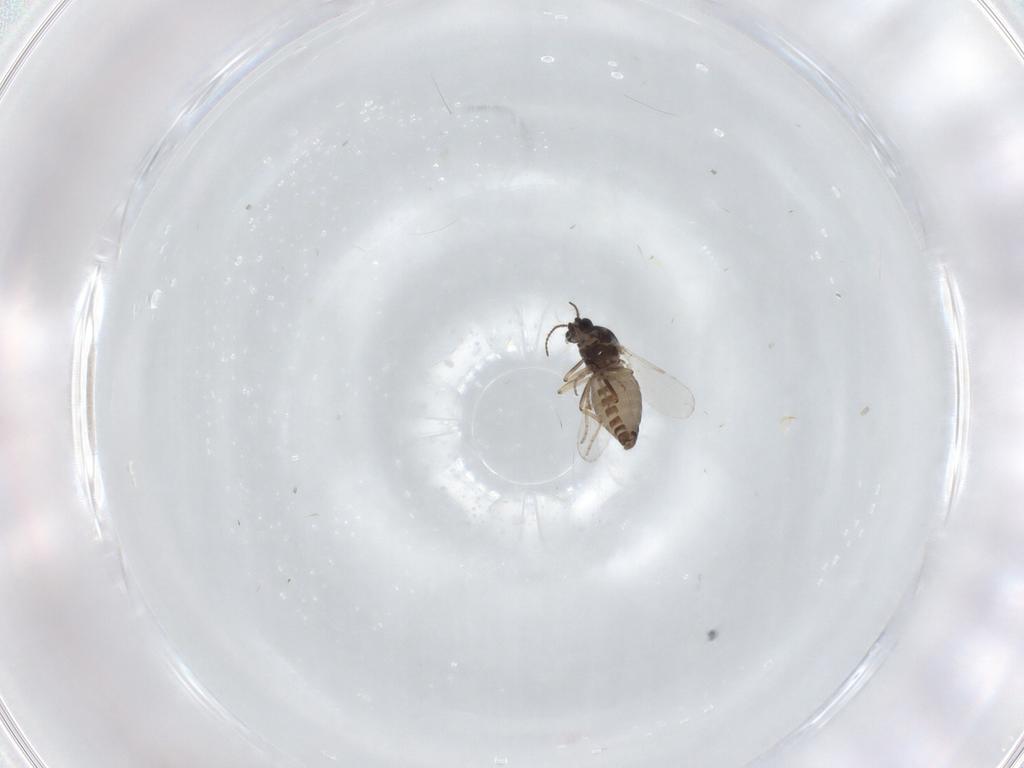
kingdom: Animalia
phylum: Arthropoda
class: Insecta
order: Diptera
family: Ceratopogonidae
